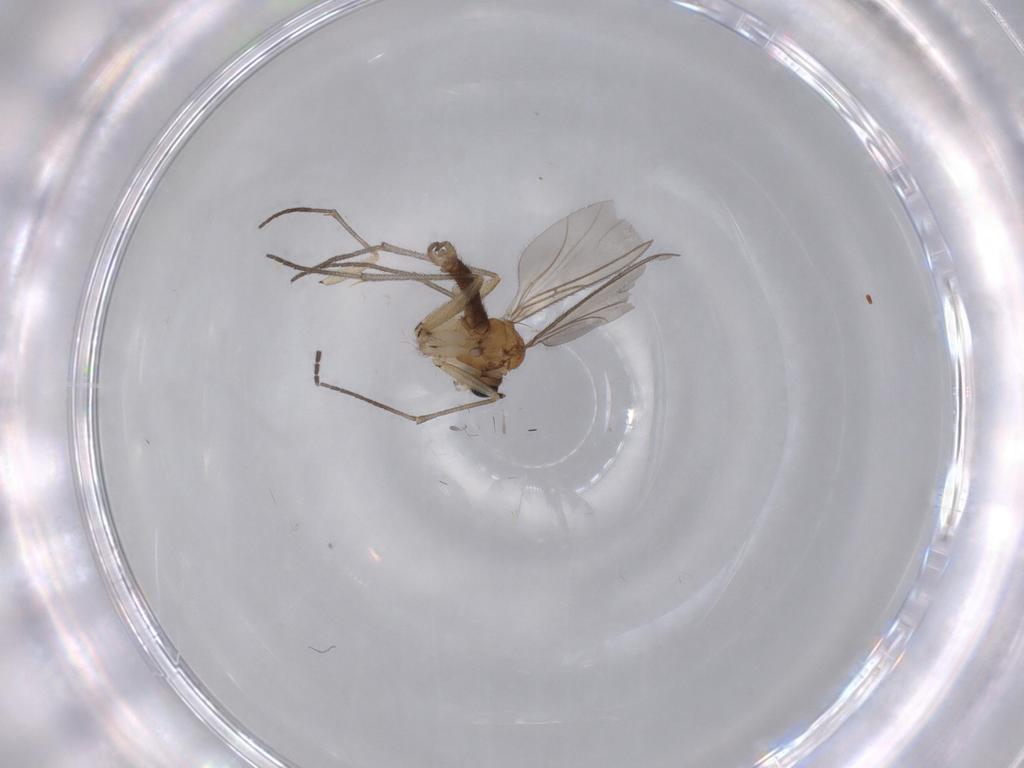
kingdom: Animalia
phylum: Arthropoda
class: Insecta
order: Diptera
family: Sciaridae
